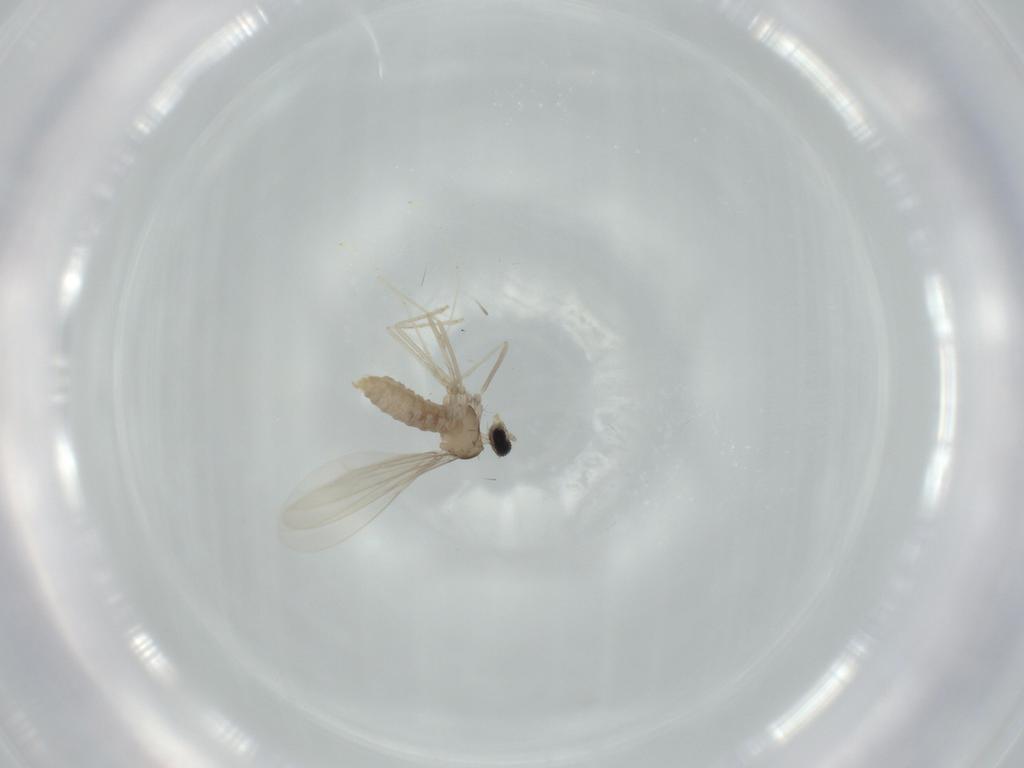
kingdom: Animalia
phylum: Arthropoda
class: Insecta
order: Diptera
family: Cecidomyiidae
